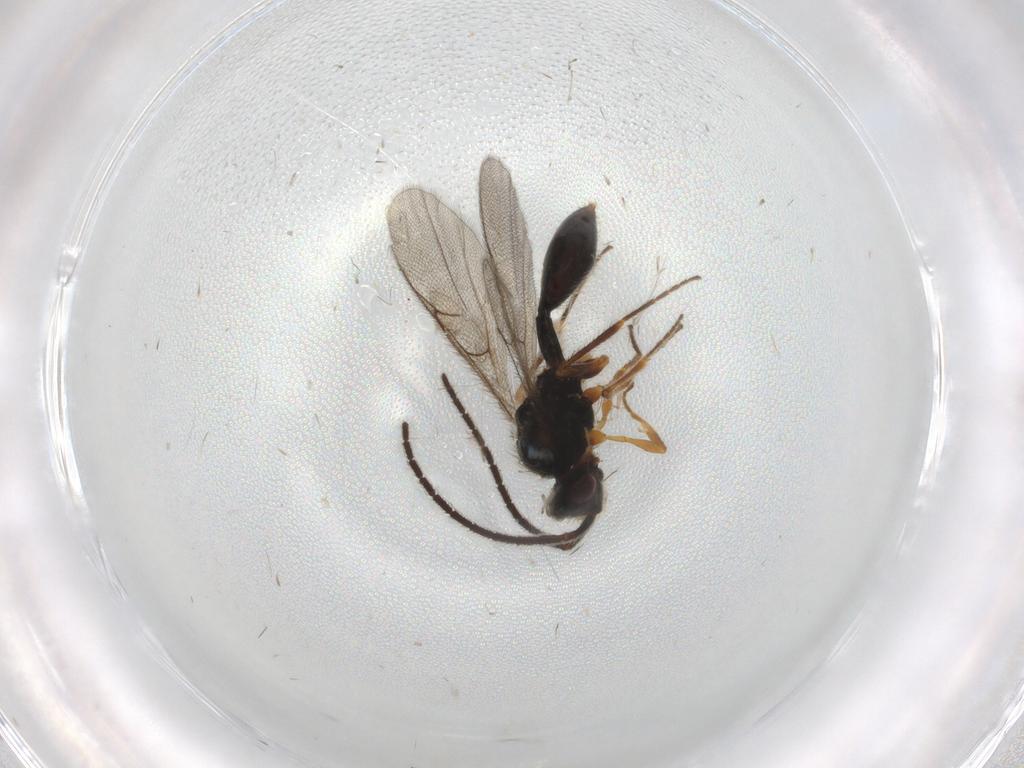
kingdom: Animalia
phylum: Arthropoda
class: Insecta
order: Hymenoptera
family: Diapriidae
